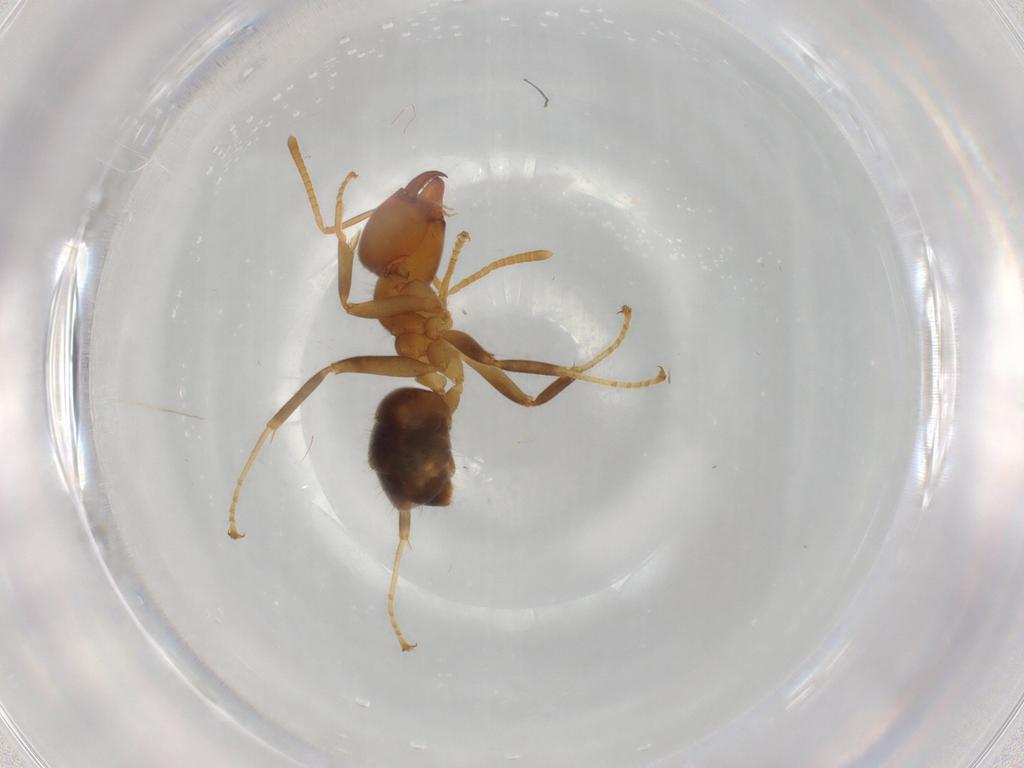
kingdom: Animalia
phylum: Arthropoda
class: Insecta
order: Hymenoptera
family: Formicidae
